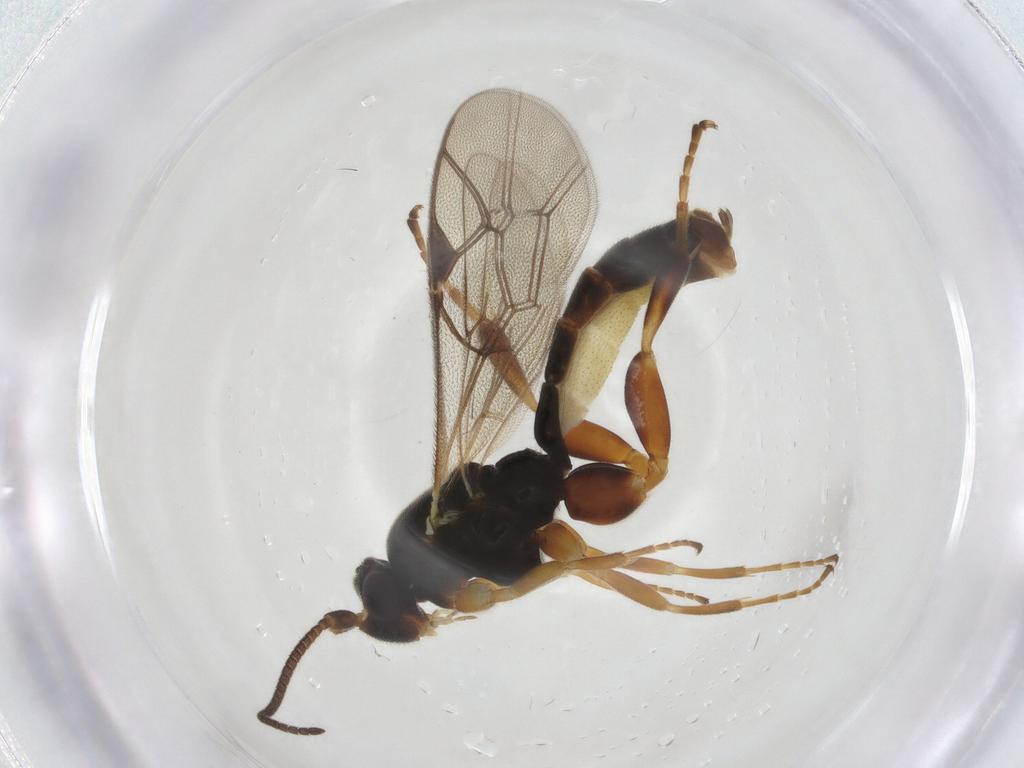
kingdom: Animalia
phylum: Arthropoda
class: Insecta
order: Hymenoptera
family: Ichneumonidae
